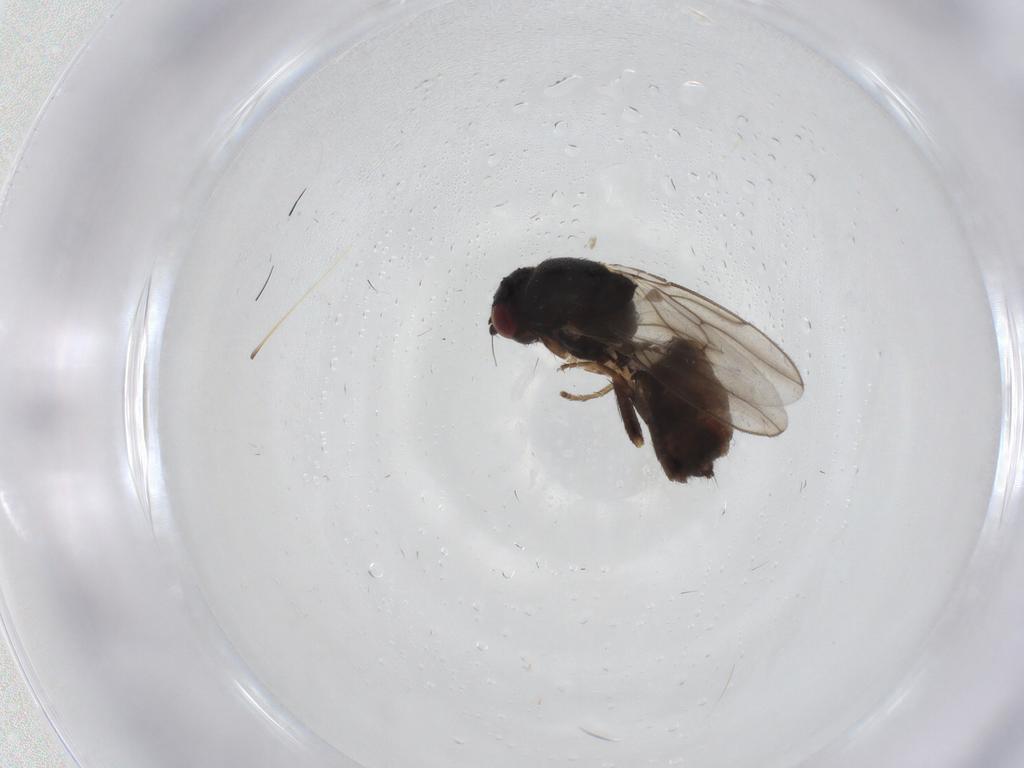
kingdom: Animalia
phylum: Arthropoda
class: Insecta
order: Diptera
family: Sphaeroceridae
